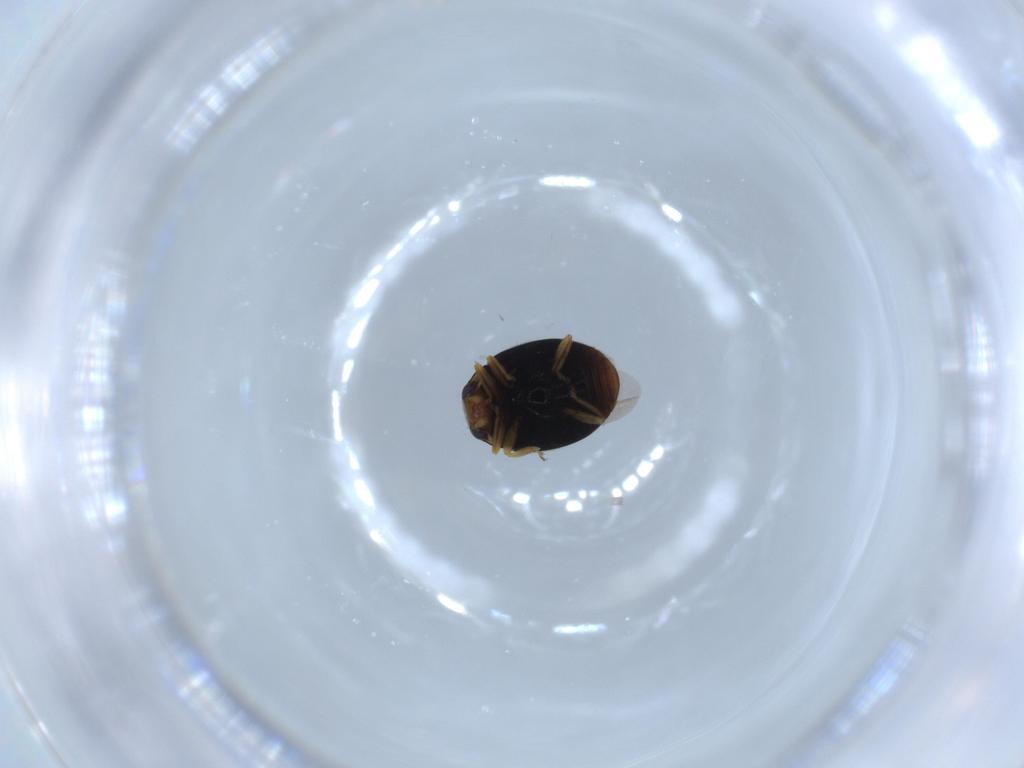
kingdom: Animalia
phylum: Arthropoda
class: Insecta
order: Coleoptera
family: Coccinellidae
